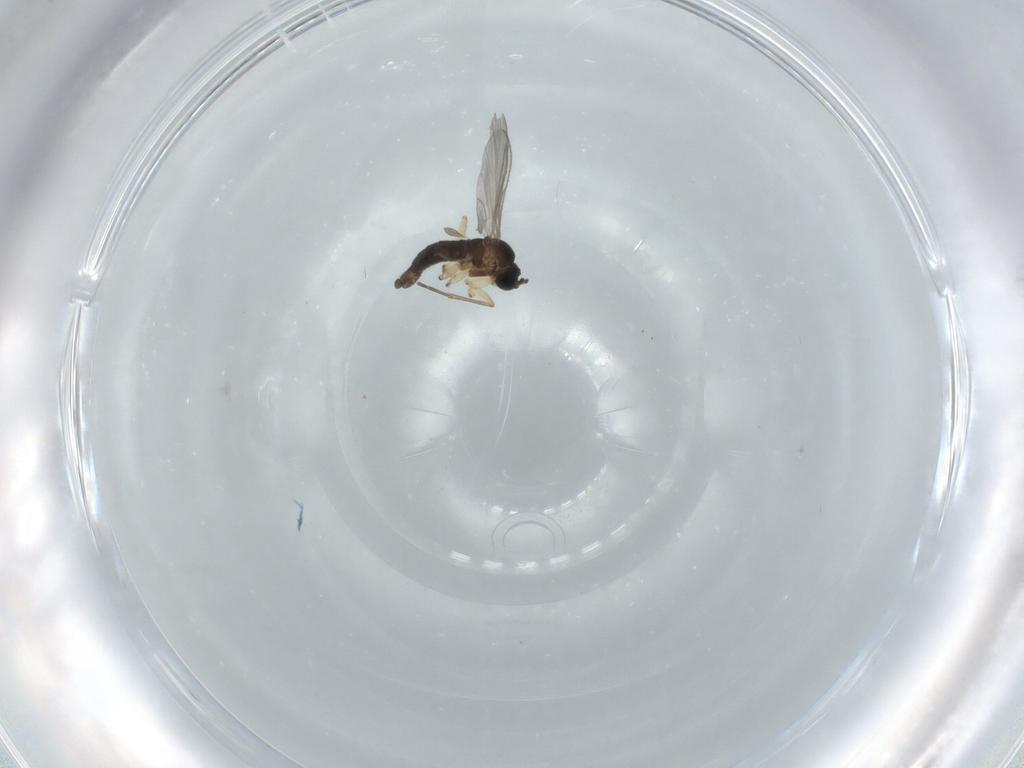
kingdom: Animalia
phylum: Arthropoda
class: Insecta
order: Diptera
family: Sciaridae
